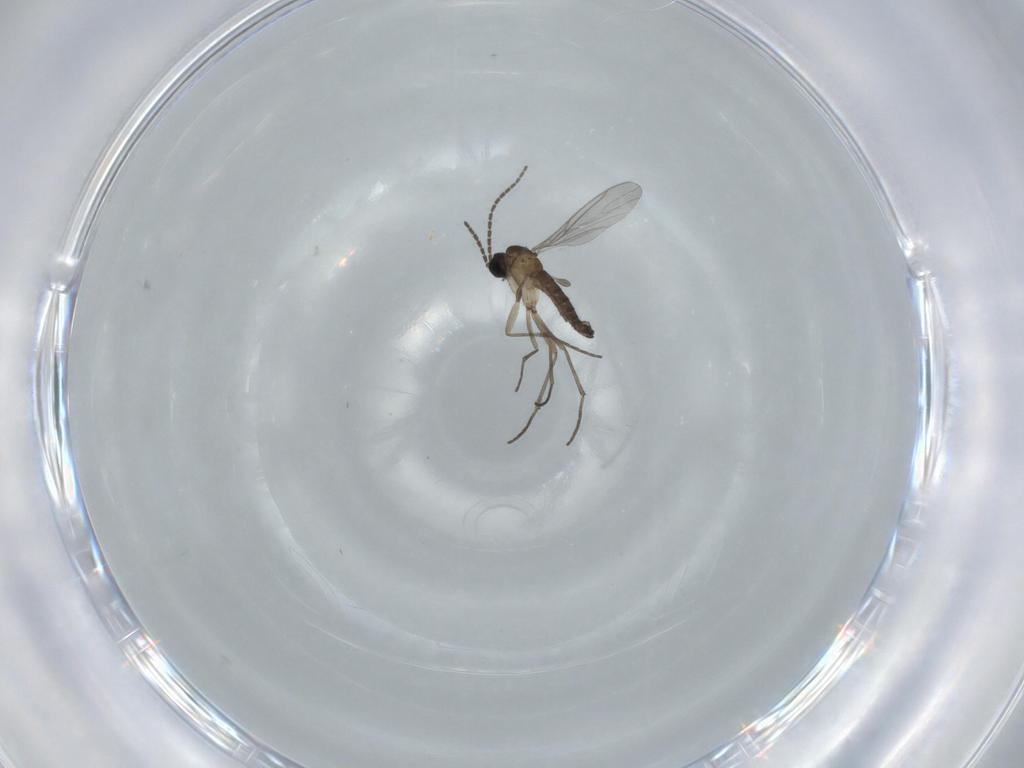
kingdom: Animalia
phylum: Arthropoda
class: Insecta
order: Diptera
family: Sciaridae
